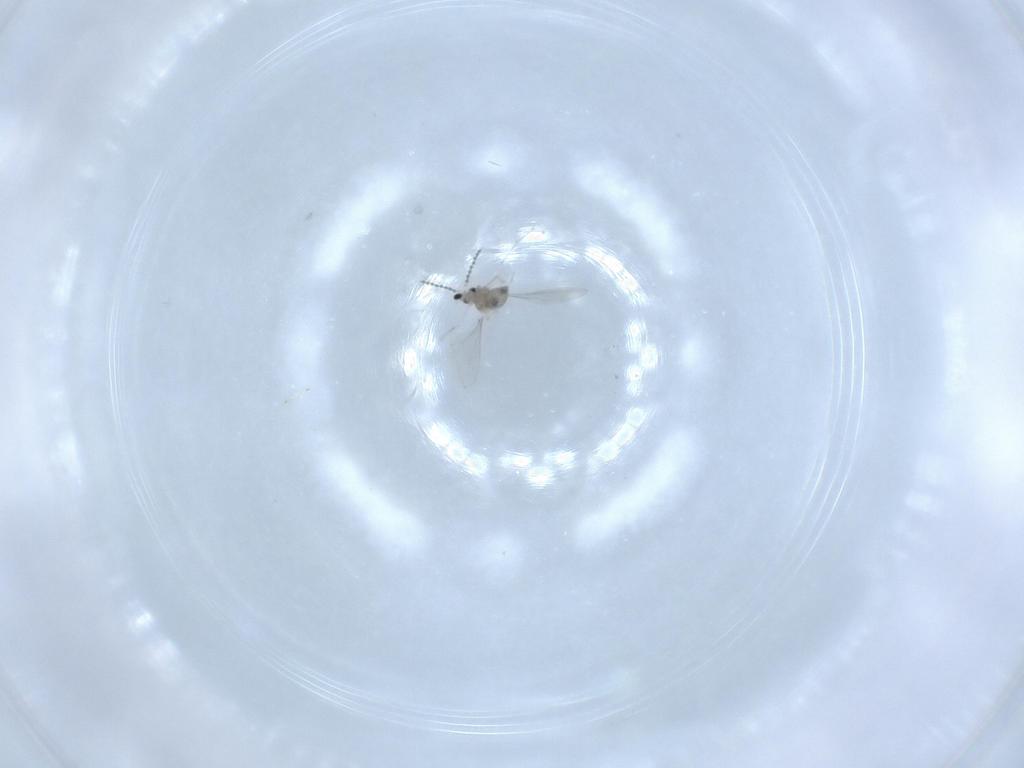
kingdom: Animalia
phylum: Arthropoda
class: Insecta
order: Diptera
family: Cecidomyiidae
